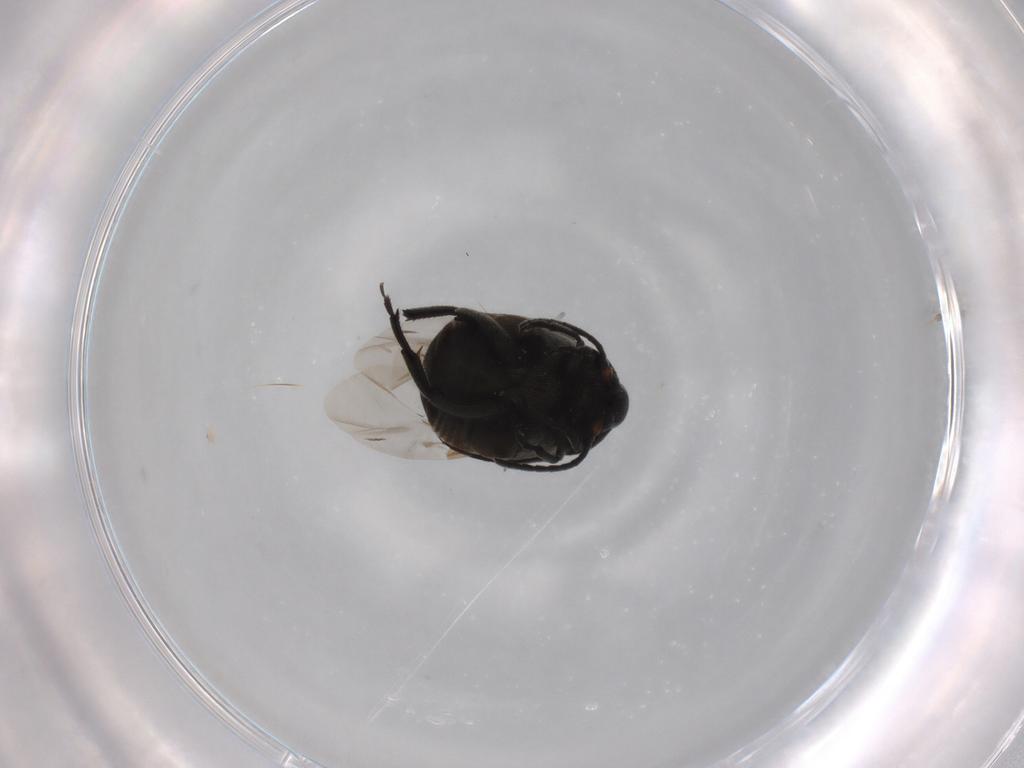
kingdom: Animalia
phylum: Arthropoda
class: Insecta
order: Coleoptera
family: Chrysomelidae
